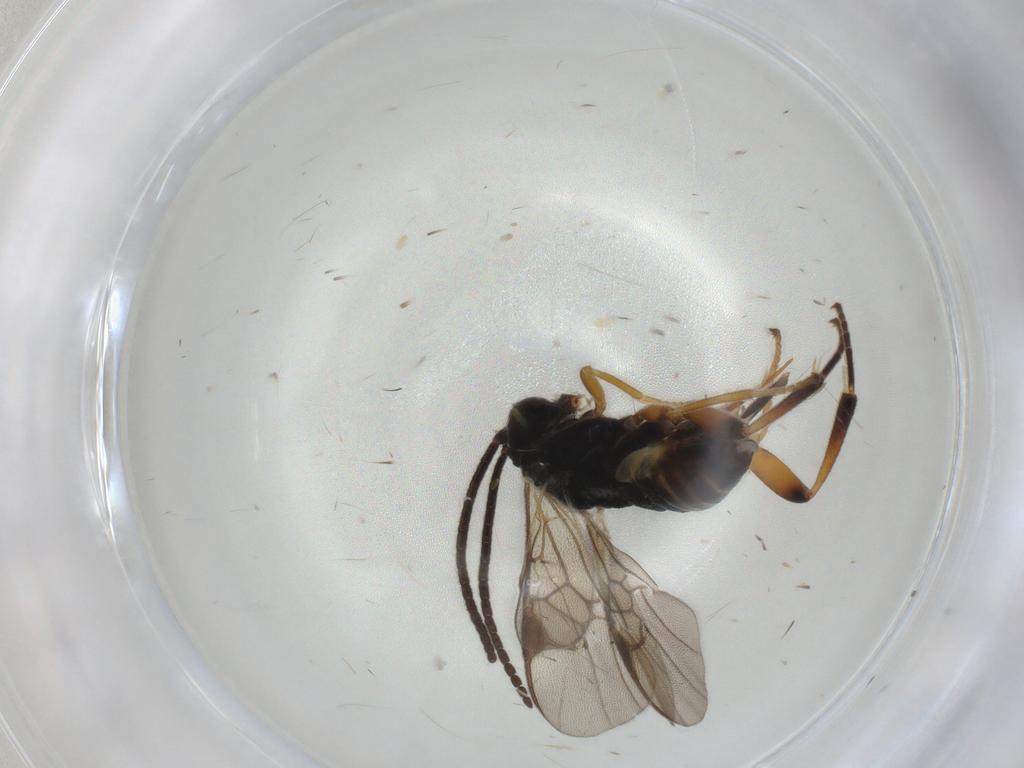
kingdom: Animalia
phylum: Arthropoda
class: Insecta
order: Hymenoptera
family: Mymaridae
